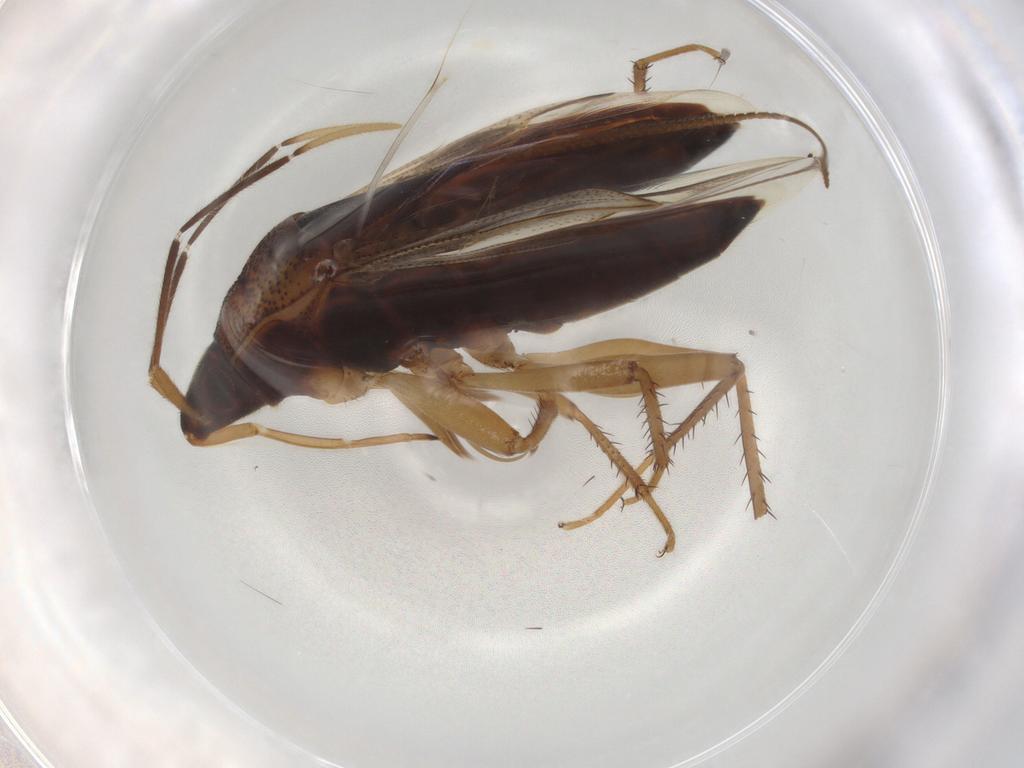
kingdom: Animalia
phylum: Arthropoda
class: Insecta
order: Hemiptera
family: Rhyparochromidae
